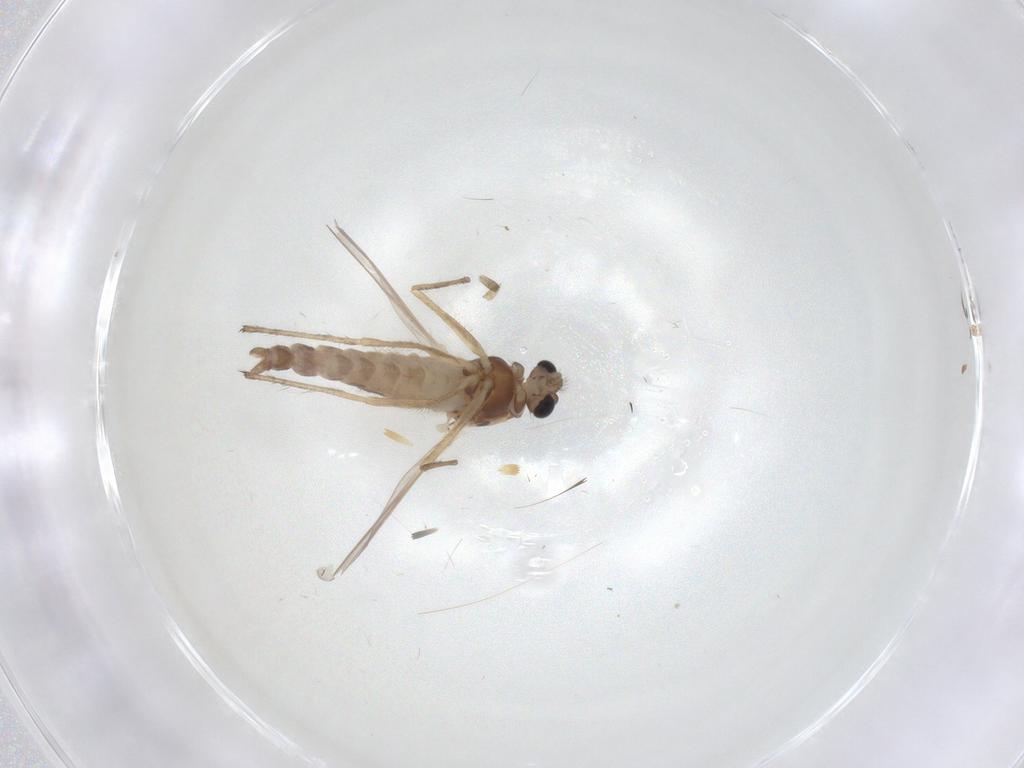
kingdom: Animalia
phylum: Arthropoda
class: Insecta
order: Diptera
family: Chironomidae
